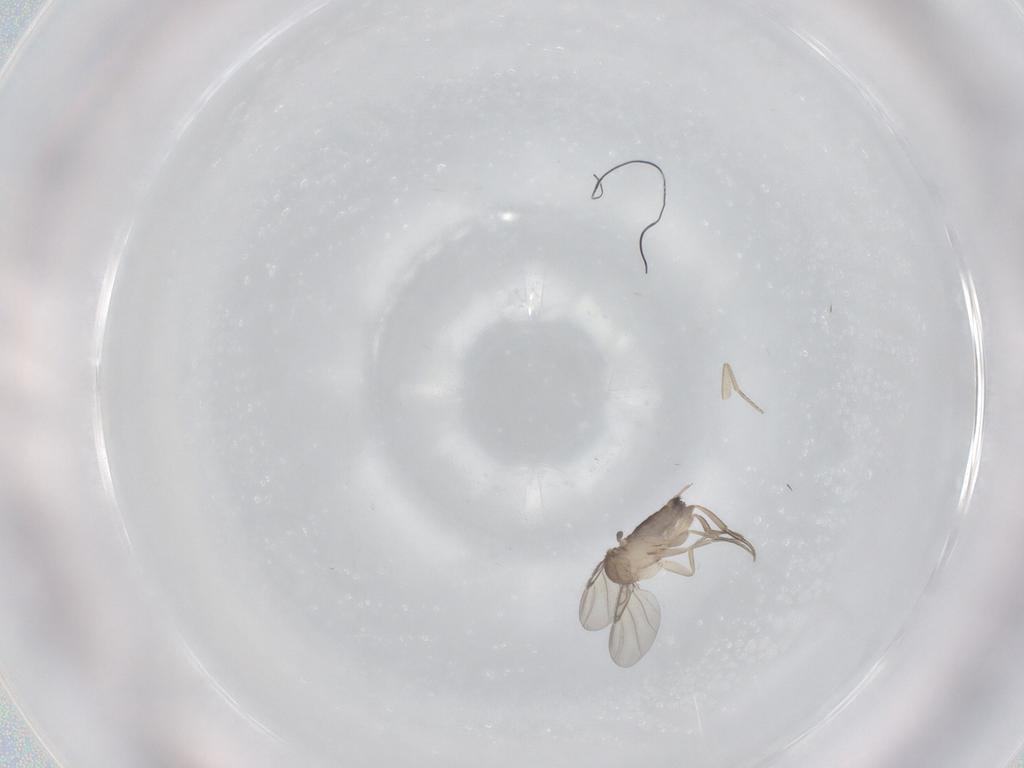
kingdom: Animalia
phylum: Arthropoda
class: Insecta
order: Diptera
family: Phoridae
